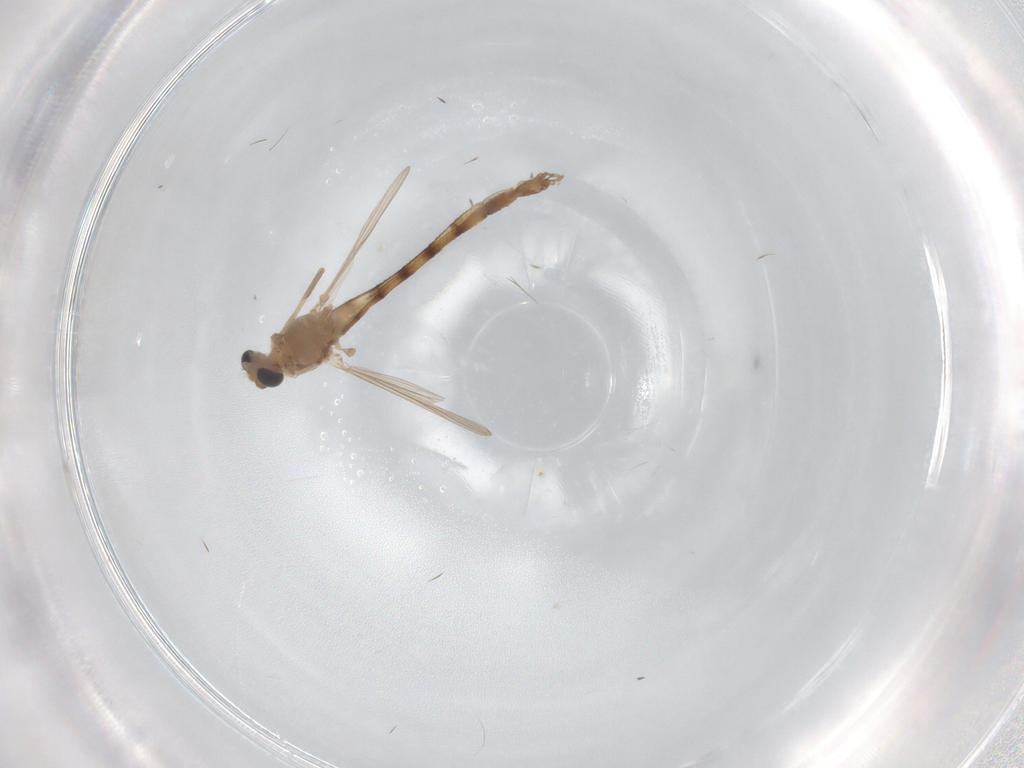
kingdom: Animalia
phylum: Arthropoda
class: Insecta
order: Diptera
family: Chironomidae
